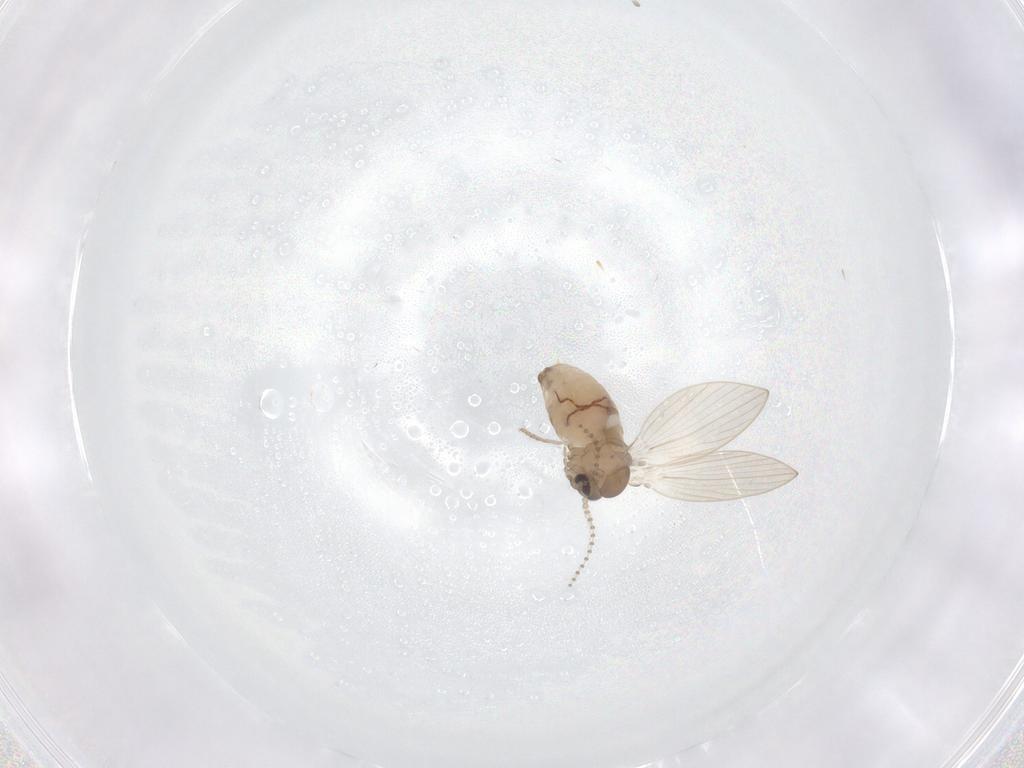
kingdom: Animalia
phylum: Arthropoda
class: Insecta
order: Diptera
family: Psychodidae
